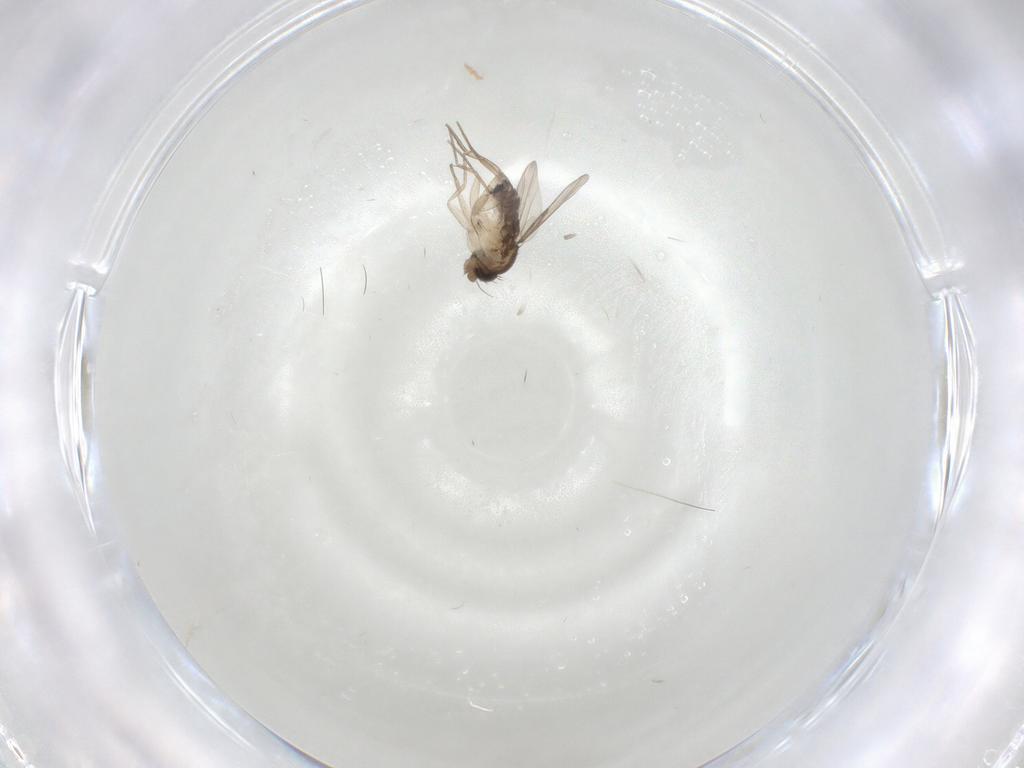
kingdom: Animalia
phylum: Arthropoda
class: Insecta
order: Diptera
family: Phoridae
